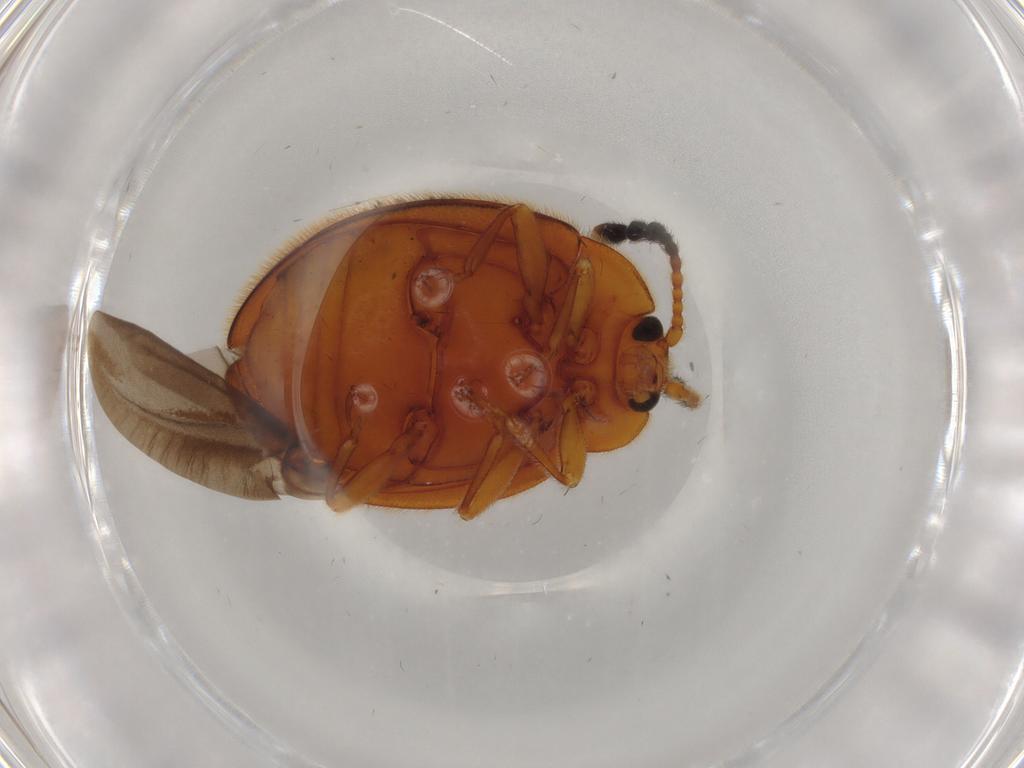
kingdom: Animalia
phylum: Arthropoda
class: Insecta
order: Coleoptera
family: Endomychidae
